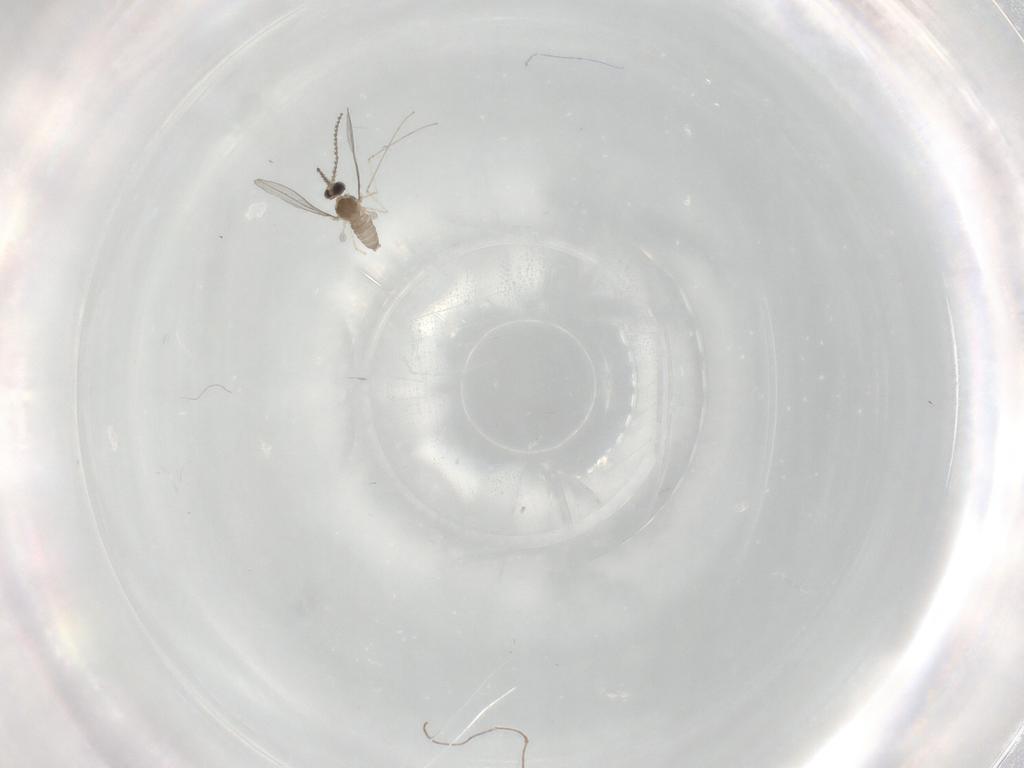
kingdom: Animalia
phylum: Arthropoda
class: Insecta
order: Diptera
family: Cecidomyiidae
